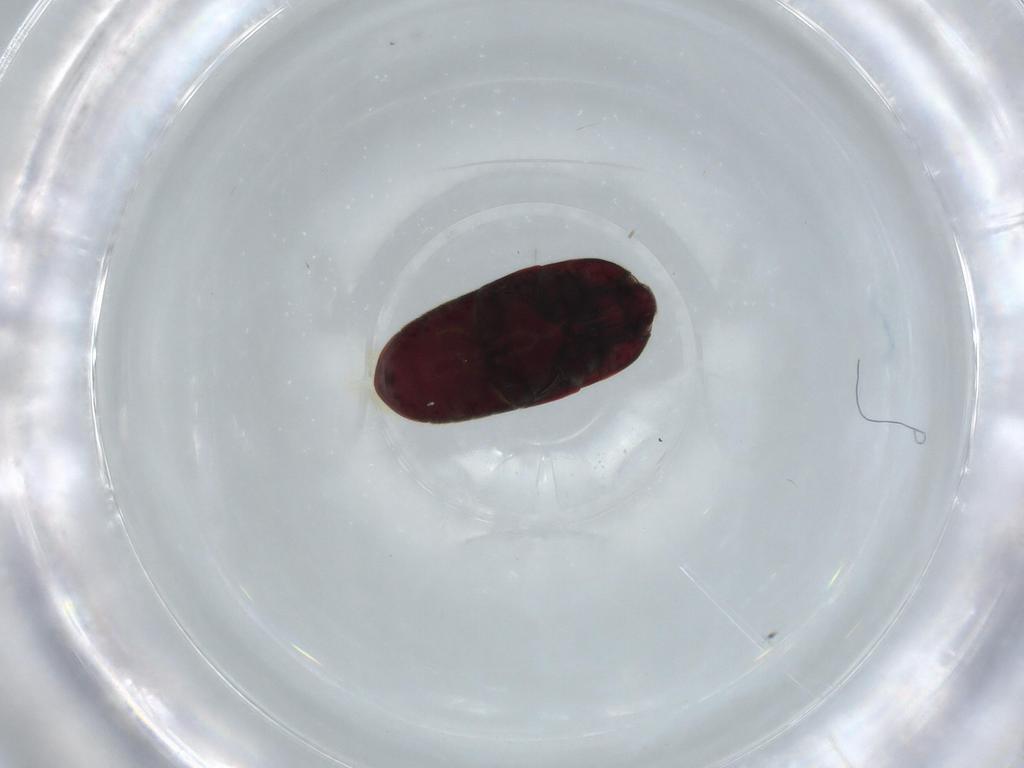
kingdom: Animalia
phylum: Arthropoda
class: Insecta
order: Coleoptera
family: Throscidae
